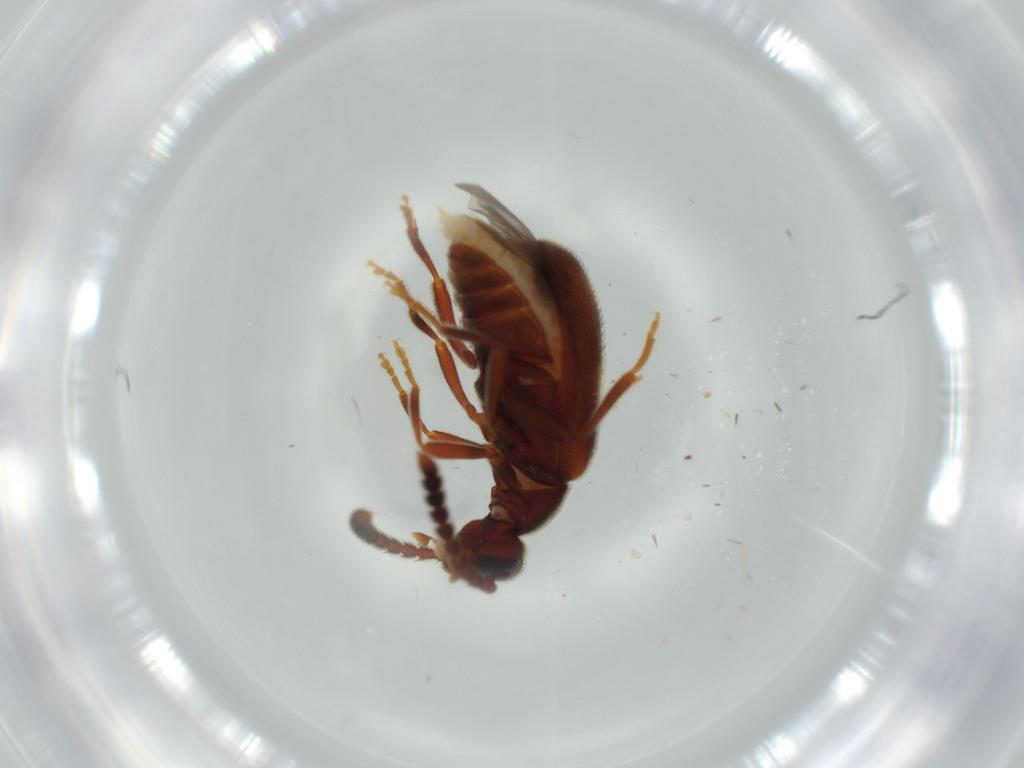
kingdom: Animalia
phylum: Arthropoda
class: Insecta
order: Coleoptera
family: Nitidulidae
